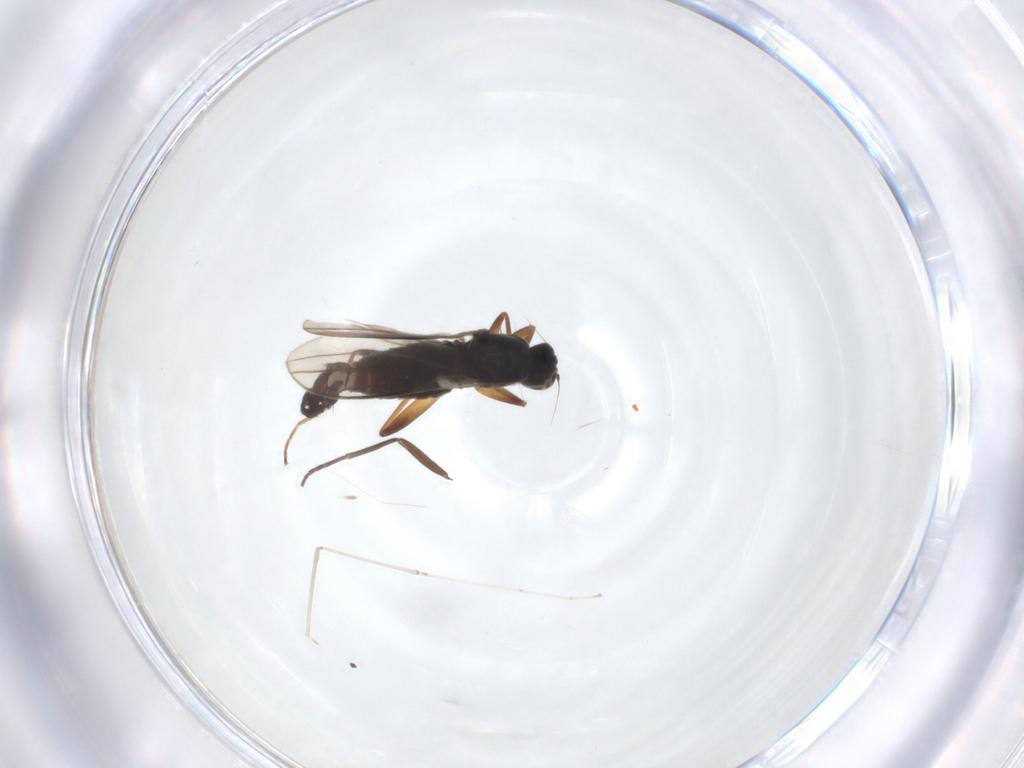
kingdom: Animalia
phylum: Arthropoda
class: Insecta
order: Diptera
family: Hybotidae
